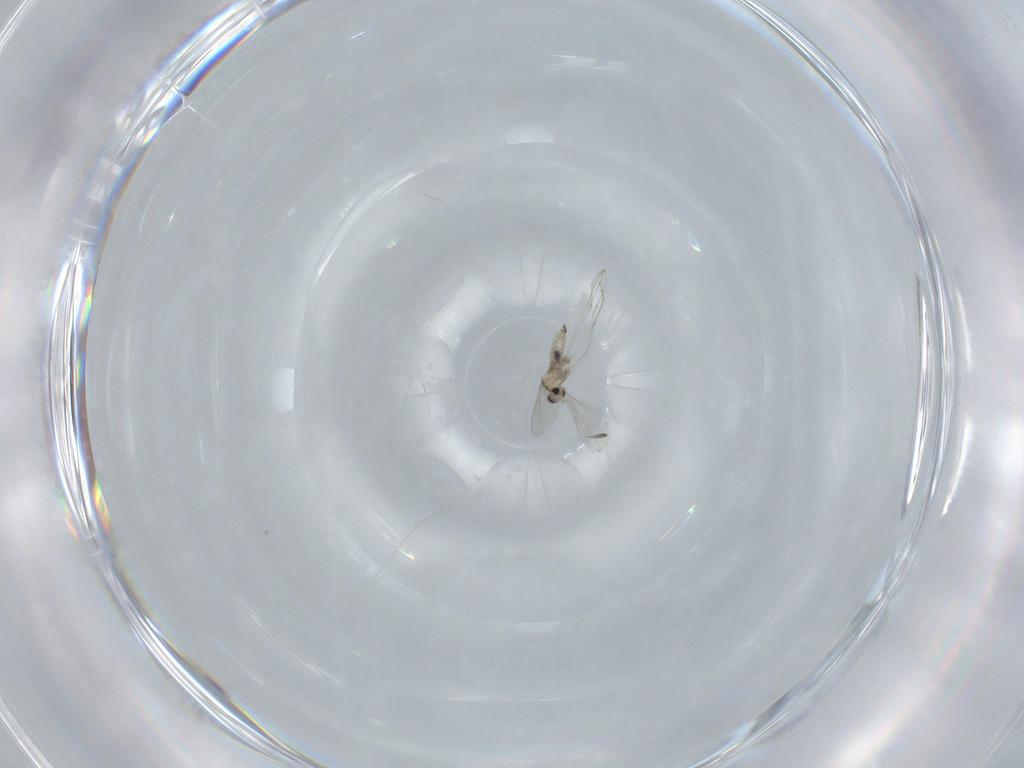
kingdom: Animalia
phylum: Arthropoda
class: Insecta
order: Diptera
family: Cecidomyiidae
